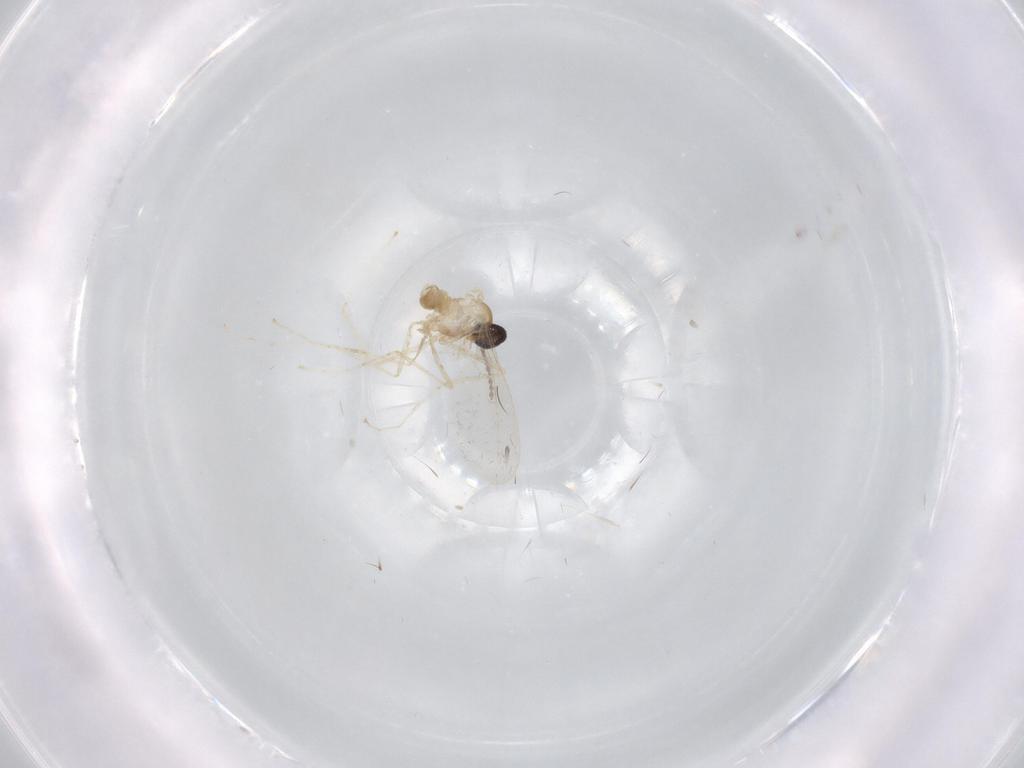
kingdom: Animalia
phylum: Arthropoda
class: Insecta
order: Diptera
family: Cecidomyiidae
